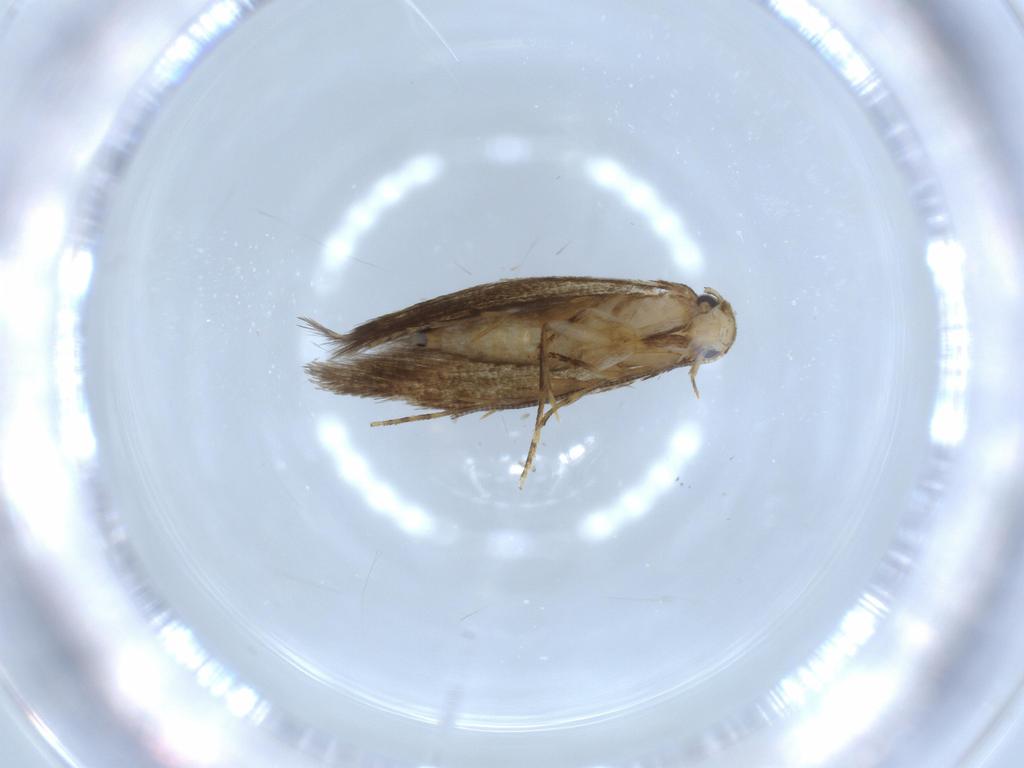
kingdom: Animalia
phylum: Arthropoda
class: Insecta
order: Lepidoptera
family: Tineidae
